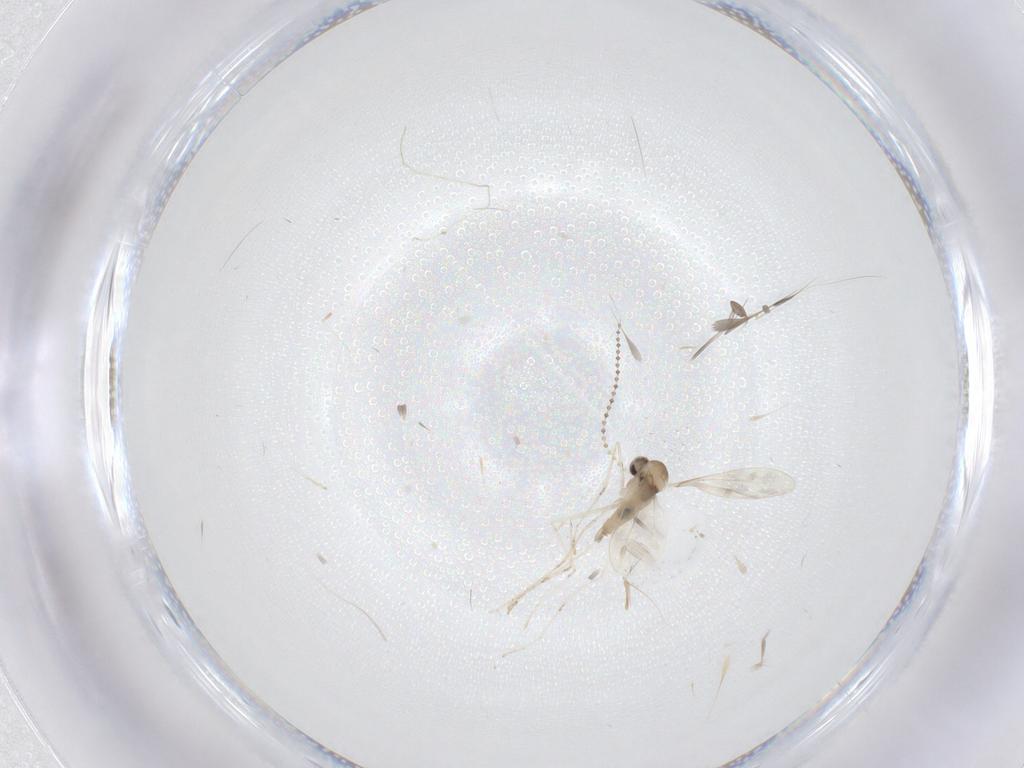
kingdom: Animalia
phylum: Arthropoda
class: Insecta
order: Diptera
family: Cecidomyiidae
